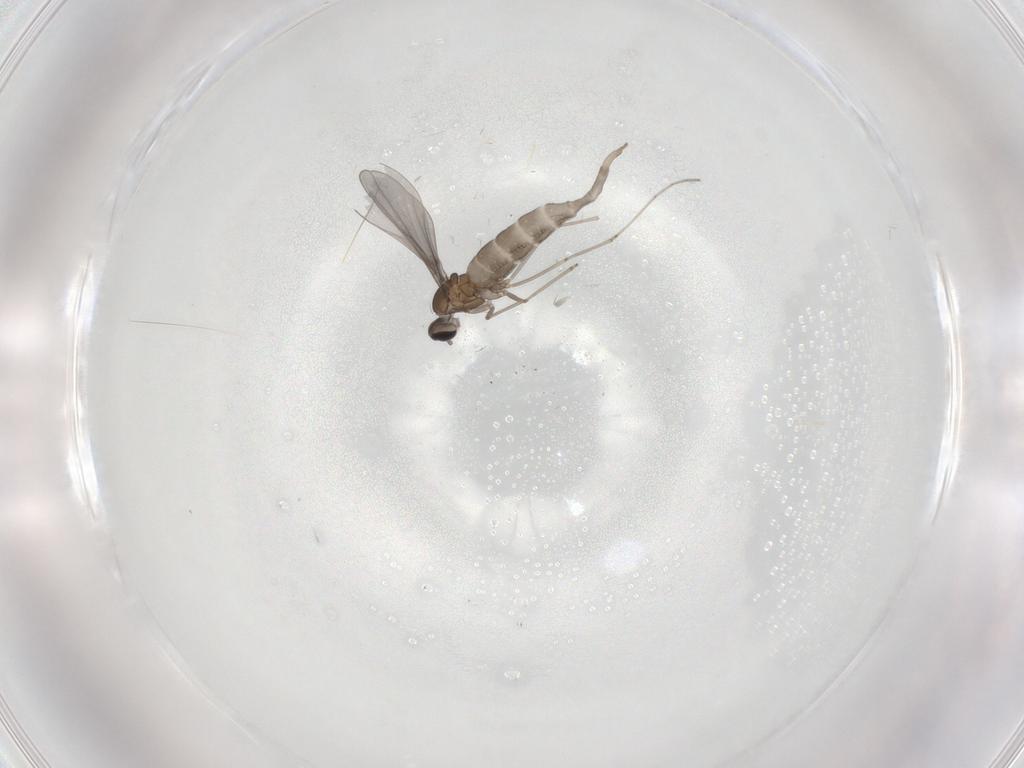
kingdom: Animalia
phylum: Arthropoda
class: Insecta
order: Diptera
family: Cecidomyiidae
